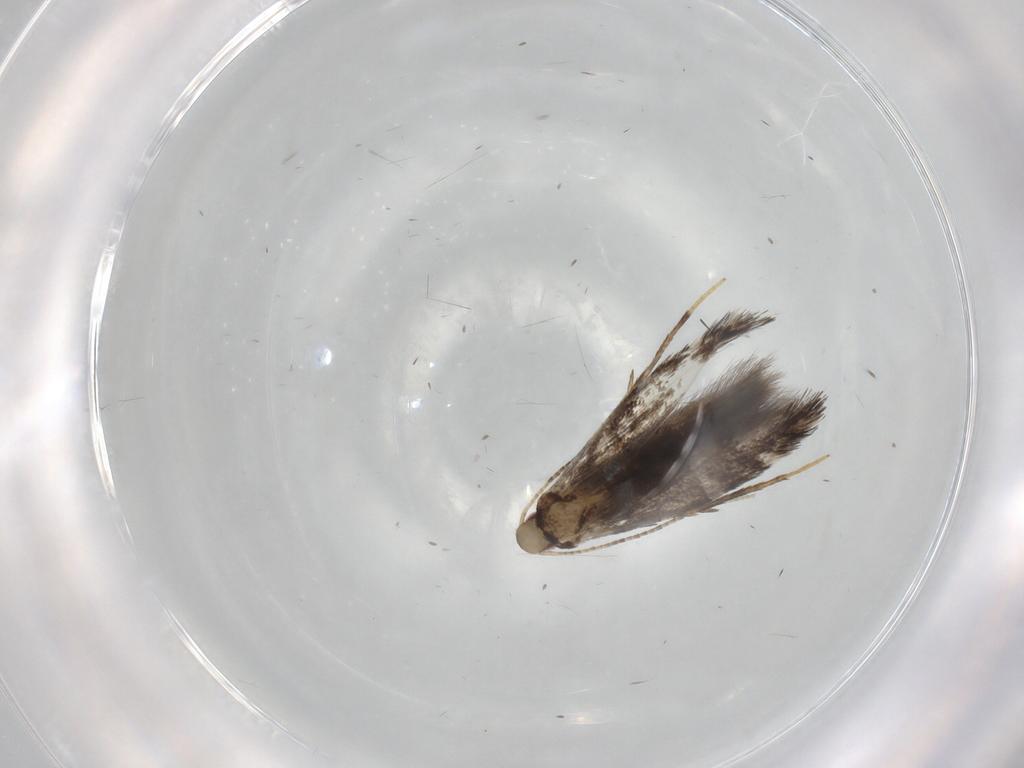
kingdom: Animalia
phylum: Arthropoda
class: Insecta
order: Lepidoptera
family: Gracillariidae
